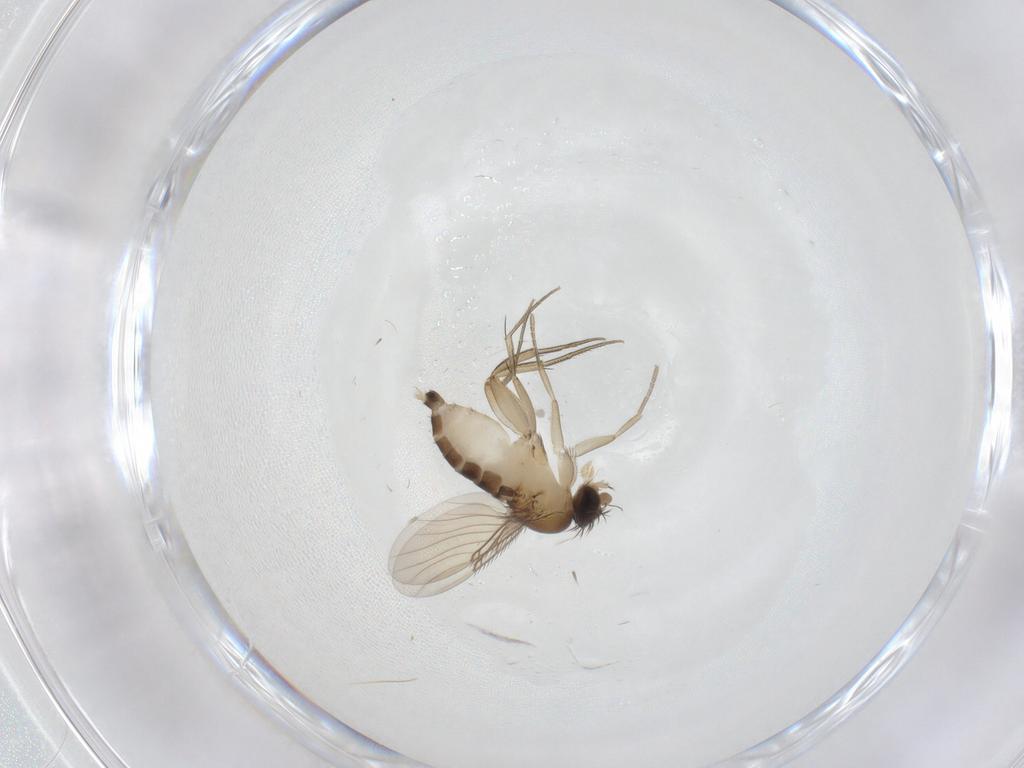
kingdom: Animalia
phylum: Arthropoda
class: Insecta
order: Diptera
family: Phoridae
